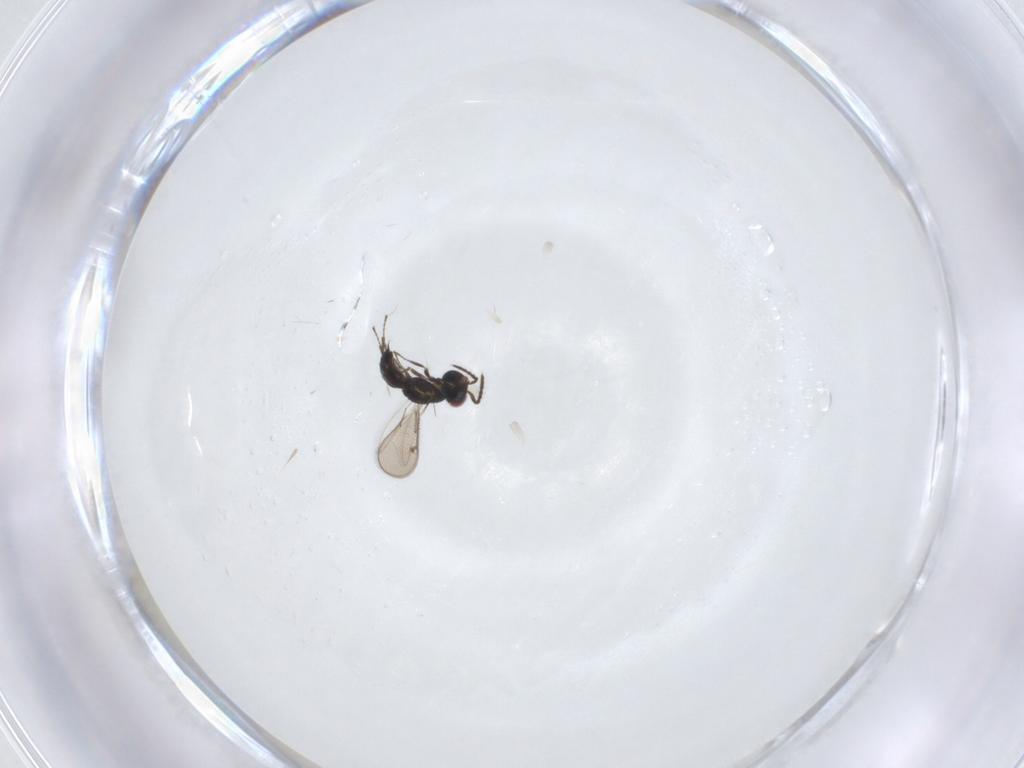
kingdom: Animalia
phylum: Arthropoda
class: Insecta
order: Hymenoptera
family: Eulophidae
